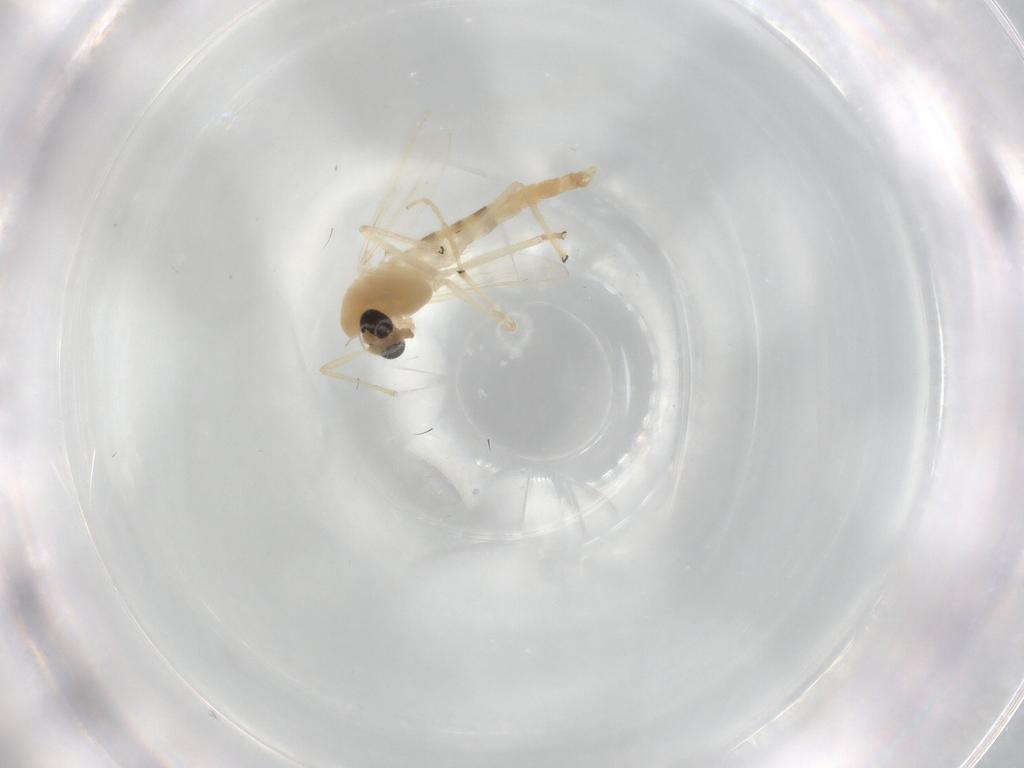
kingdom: Animalia
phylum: Arthropoda
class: Insecta
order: Diptera
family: Chironomidae
